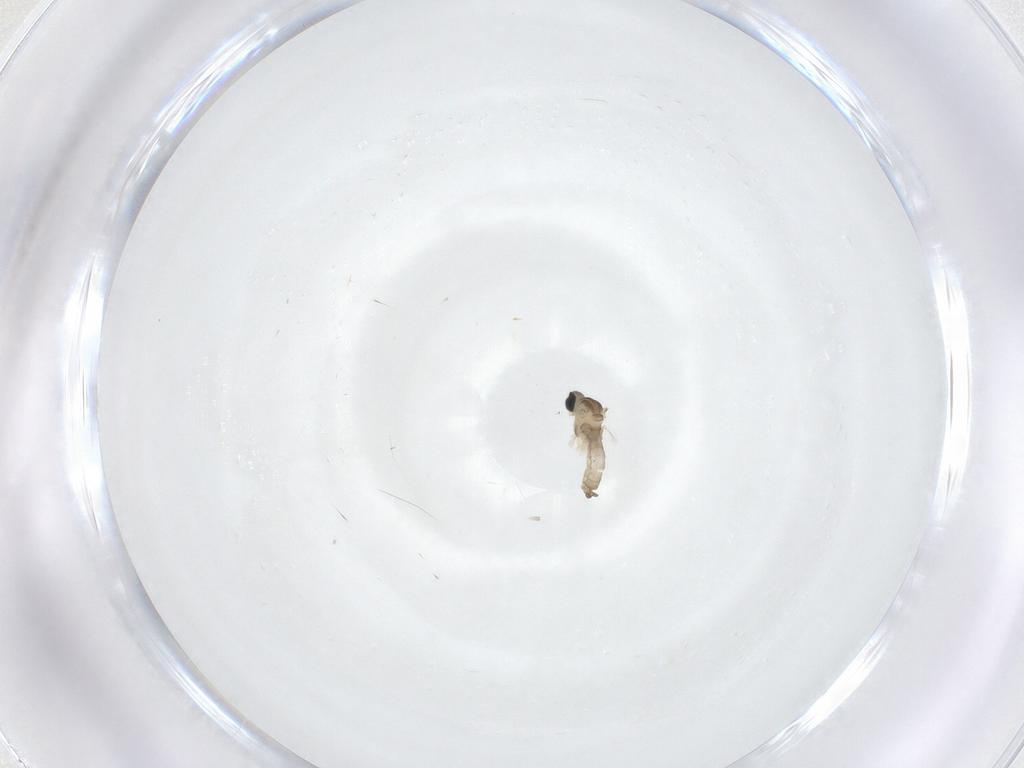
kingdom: Animalia
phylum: Arthropoda
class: Insecta
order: Diptera
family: Cecidomyiidae
